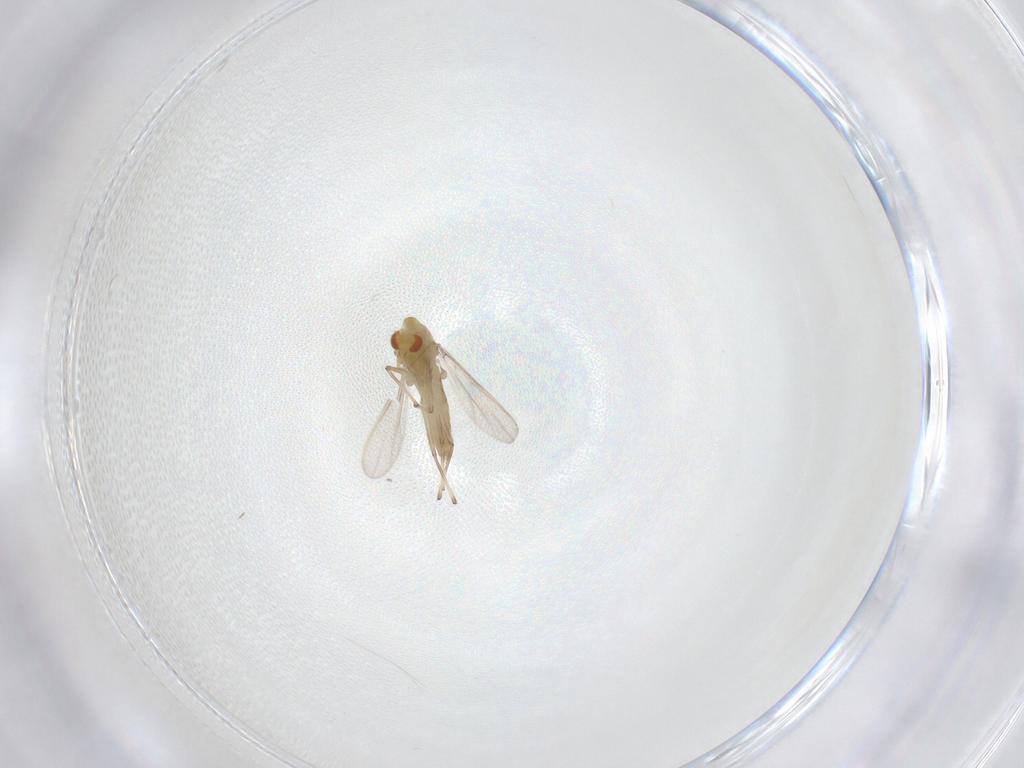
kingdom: Animalia
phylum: Arthropoda
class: Insecta
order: Diptera
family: Chironomidae
